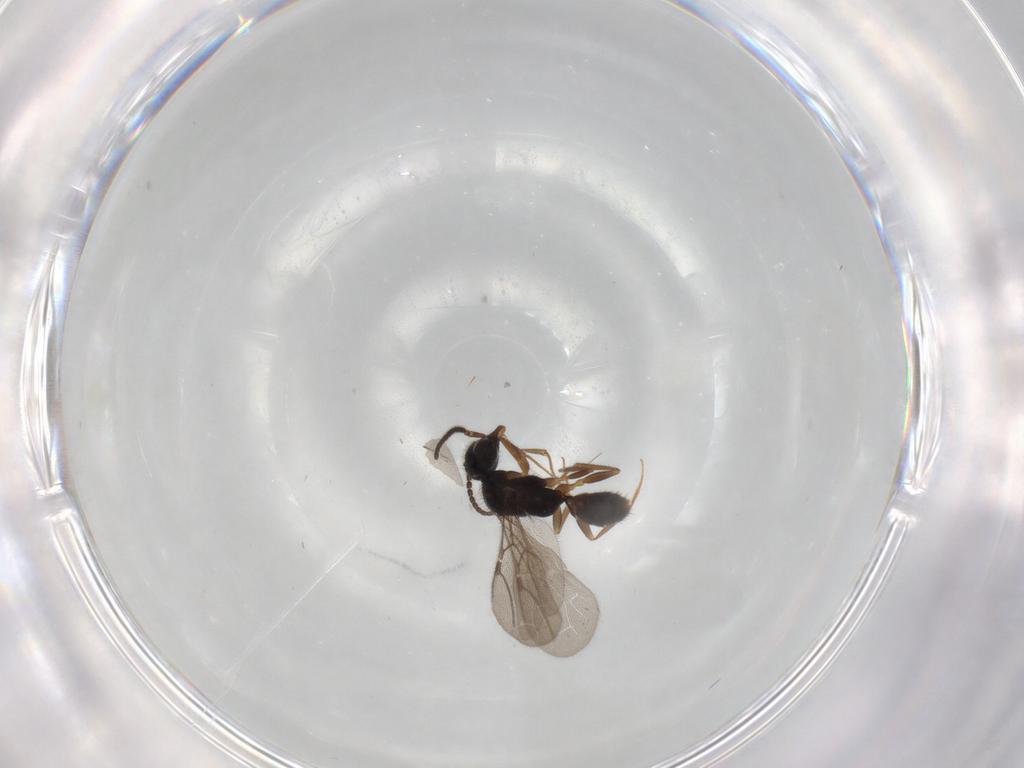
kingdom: Animalia
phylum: Arthropoda
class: Insecta
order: Hymenoptera
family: Bethylidae
